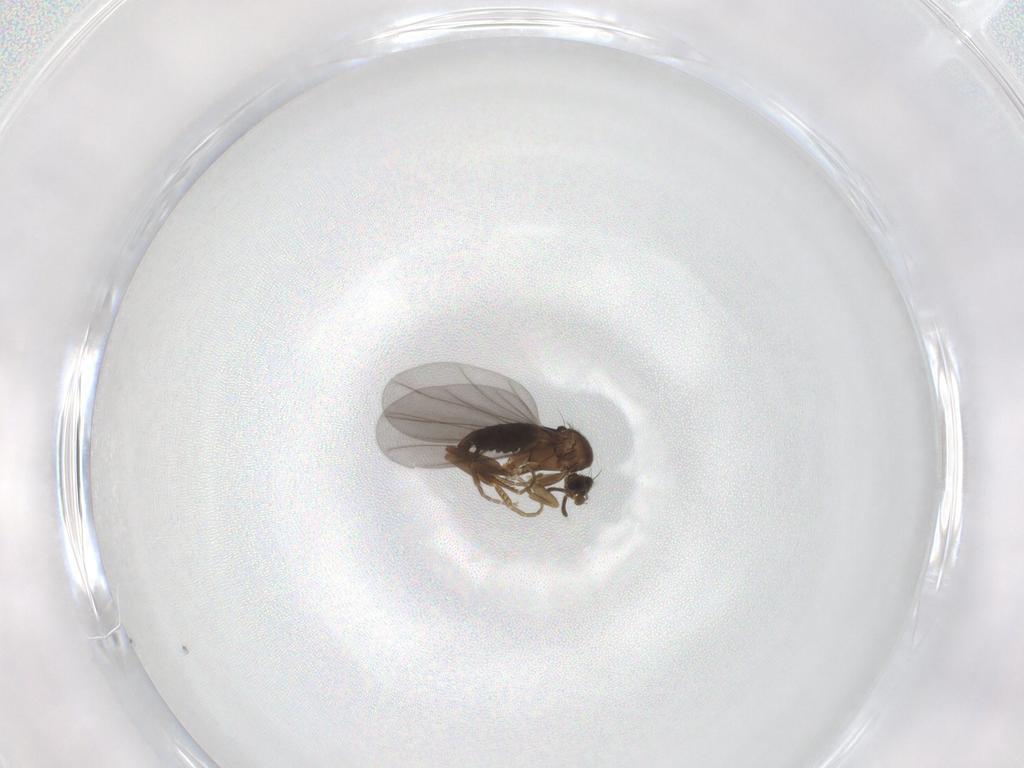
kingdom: Animalia
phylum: Arthropoda
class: Insecta
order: Diptera
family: Phoridae
